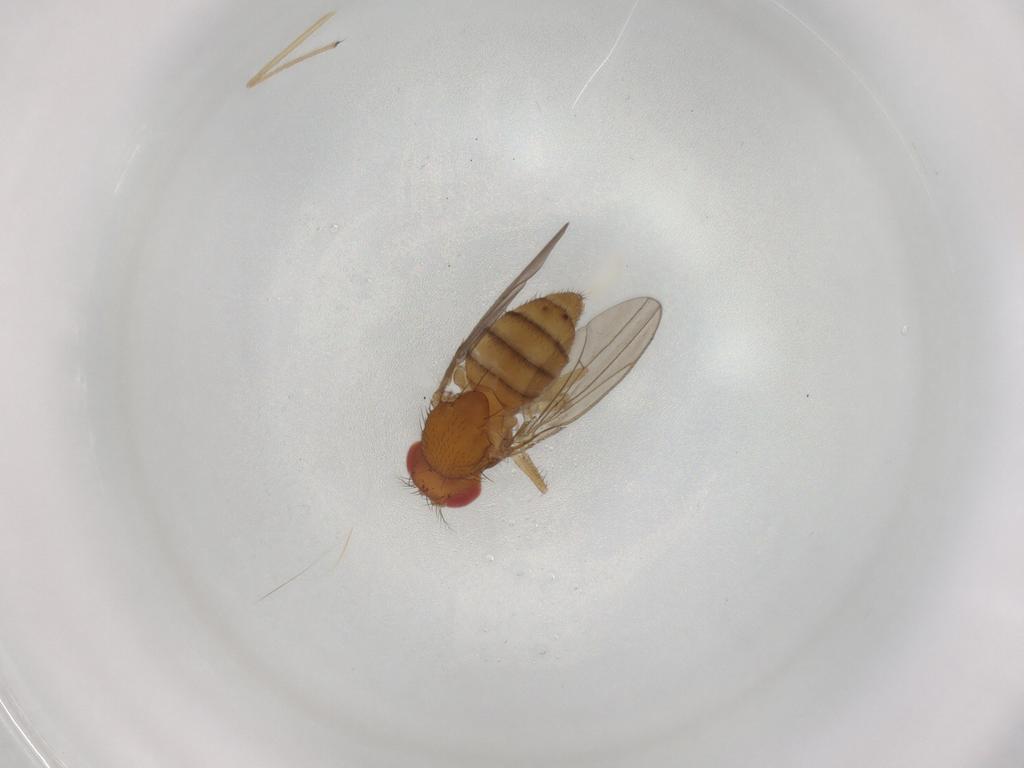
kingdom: Animalia
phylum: Arthropoda
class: Insecta
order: Diptera
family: Drosophilidae
